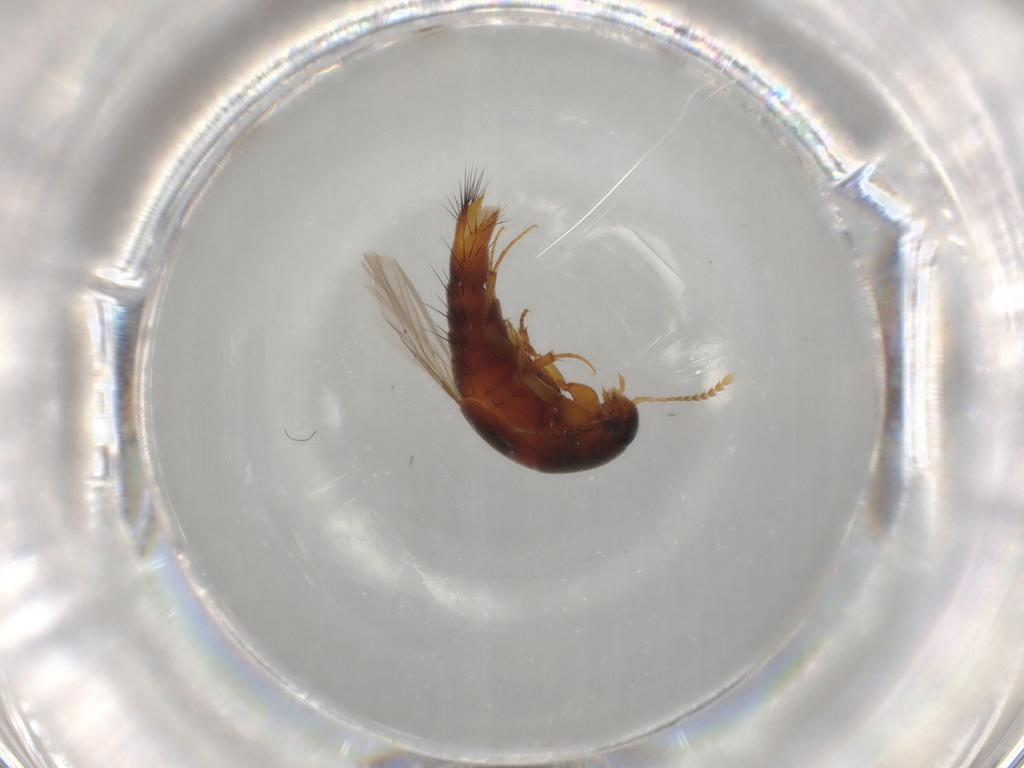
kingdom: Animalia
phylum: Arthropoda
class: Insecta
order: Coleoptera
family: Staphylinidae
